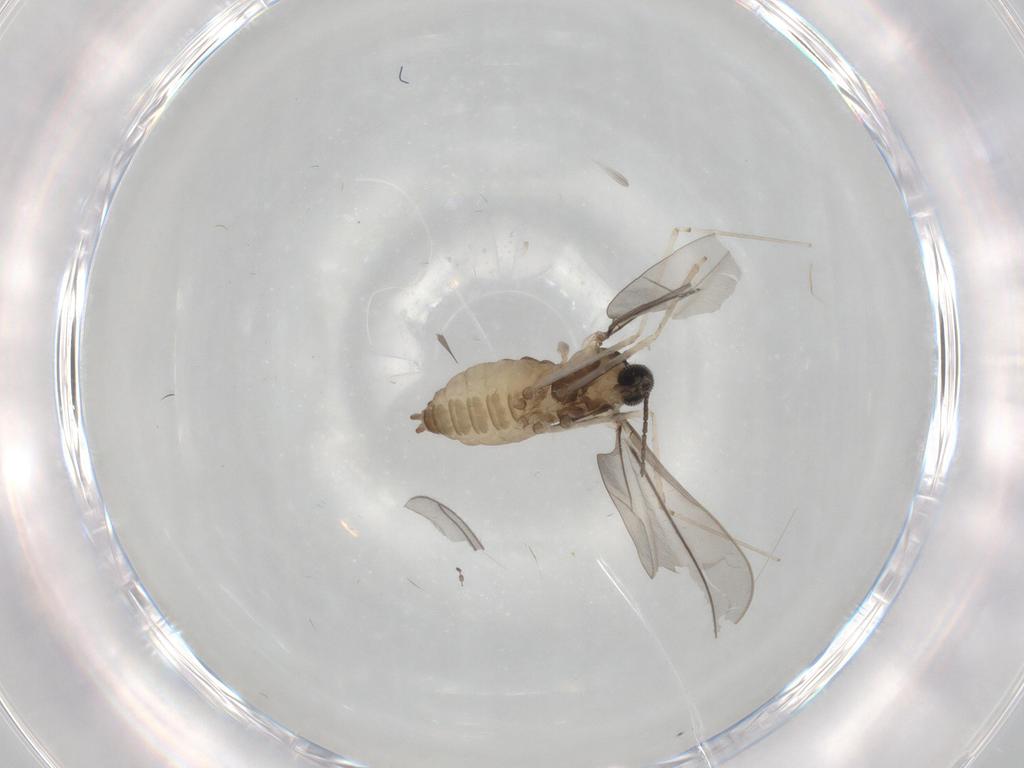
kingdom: Animalia
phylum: Arthropoda
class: Insecta
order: Diptera
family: Cecidomyiidae
